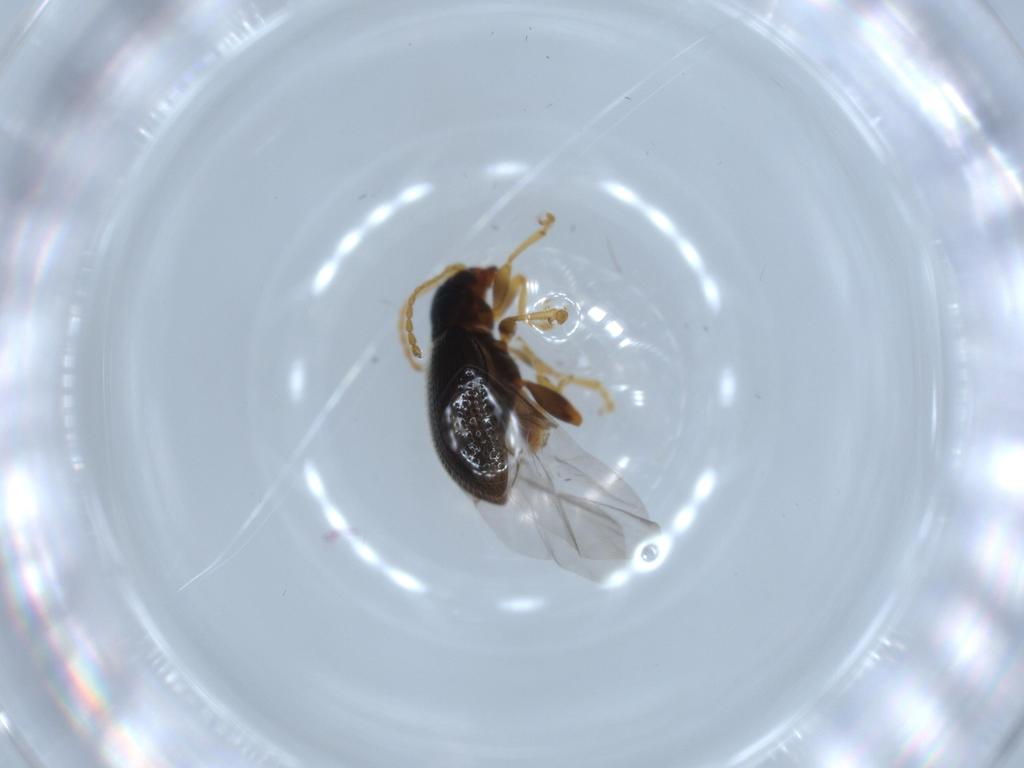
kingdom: Animalia
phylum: Arthropoda
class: Insecta
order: Coleoptera
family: Chrysomelidae
